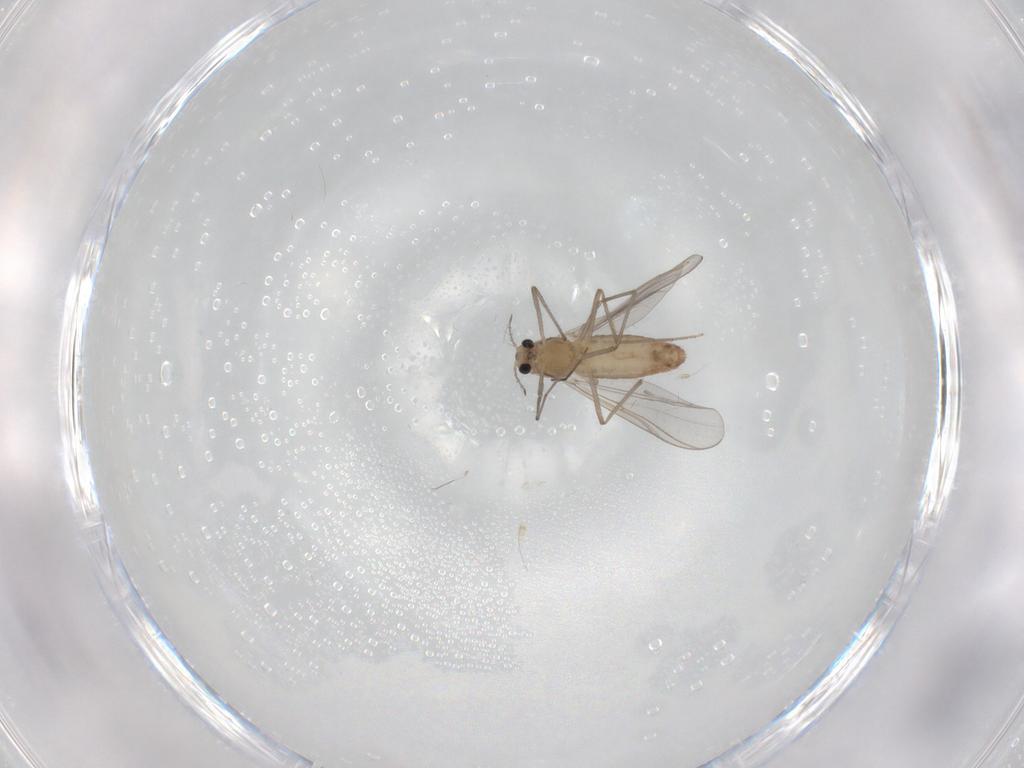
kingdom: Animalia
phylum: Arthropoda
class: Insecta
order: Diptera
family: Chironomidae
